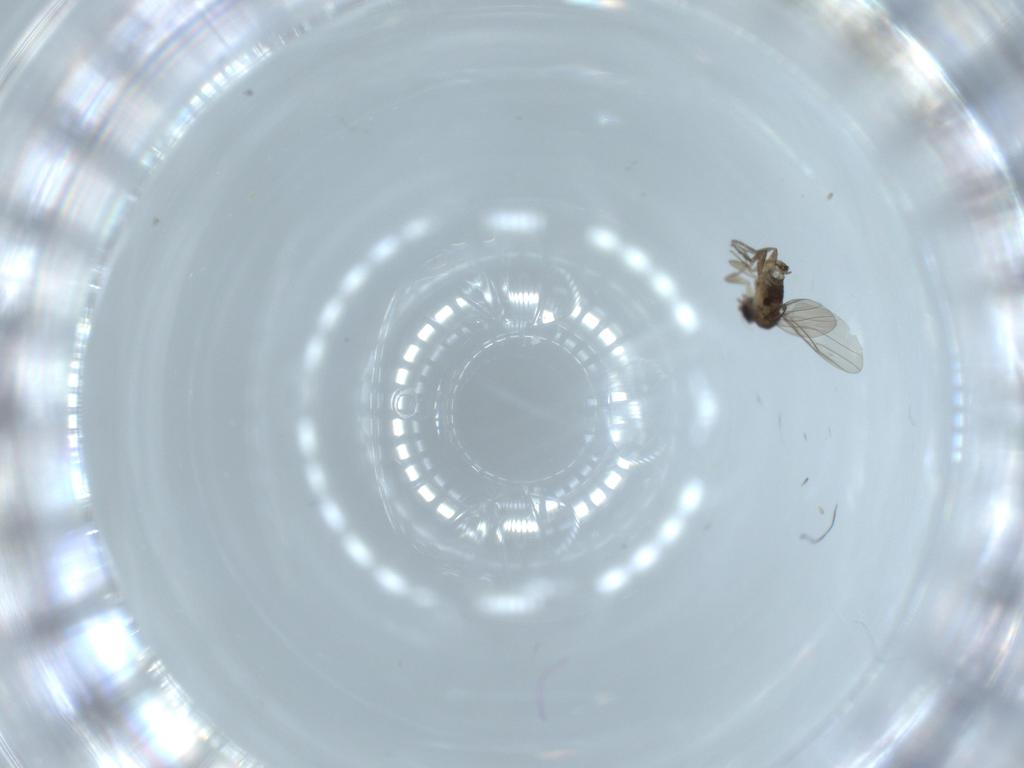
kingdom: Animalia
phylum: Arthropoda
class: Insecta
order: Diptera
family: Phoridae
